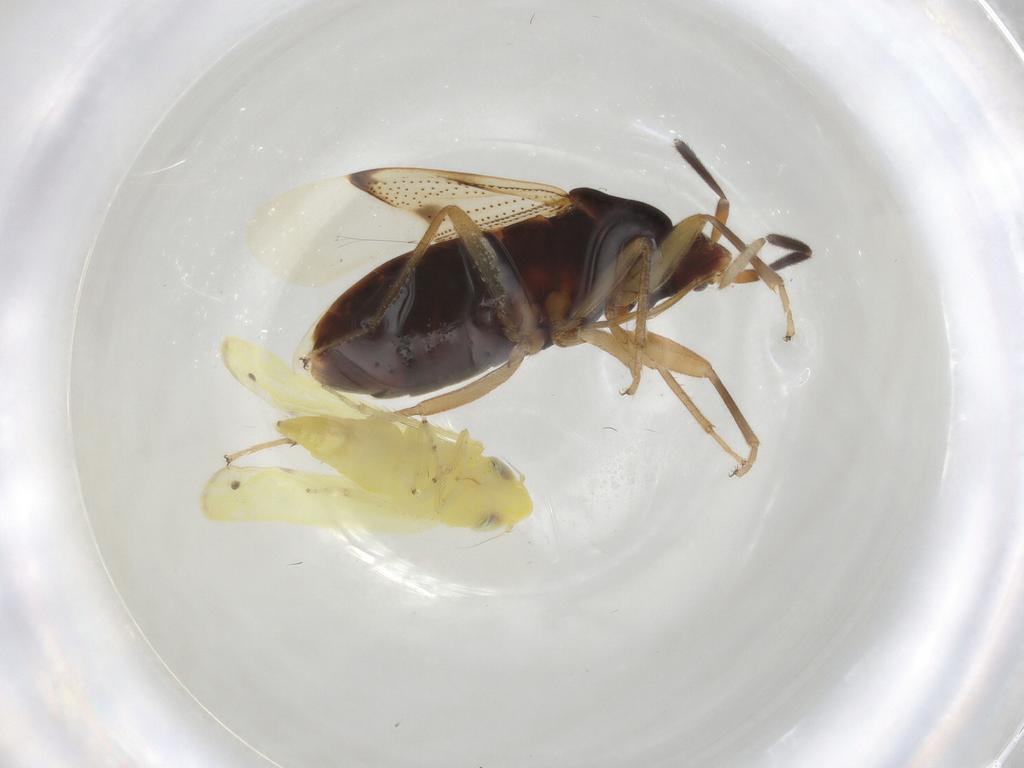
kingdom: Animalia
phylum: Arthropoda
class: Insecta
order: Hemiptera
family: Rhyparochromidae
